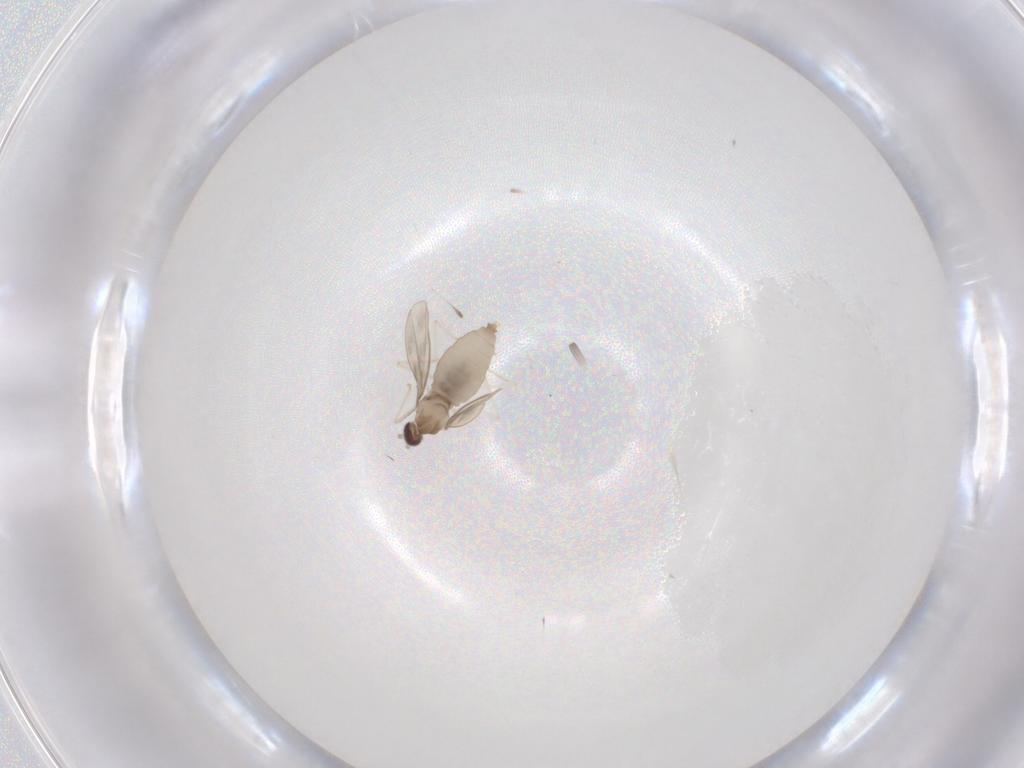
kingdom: Animalia
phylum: Arthropoda
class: Insecta
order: Diptera
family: Cecidomyiidae
